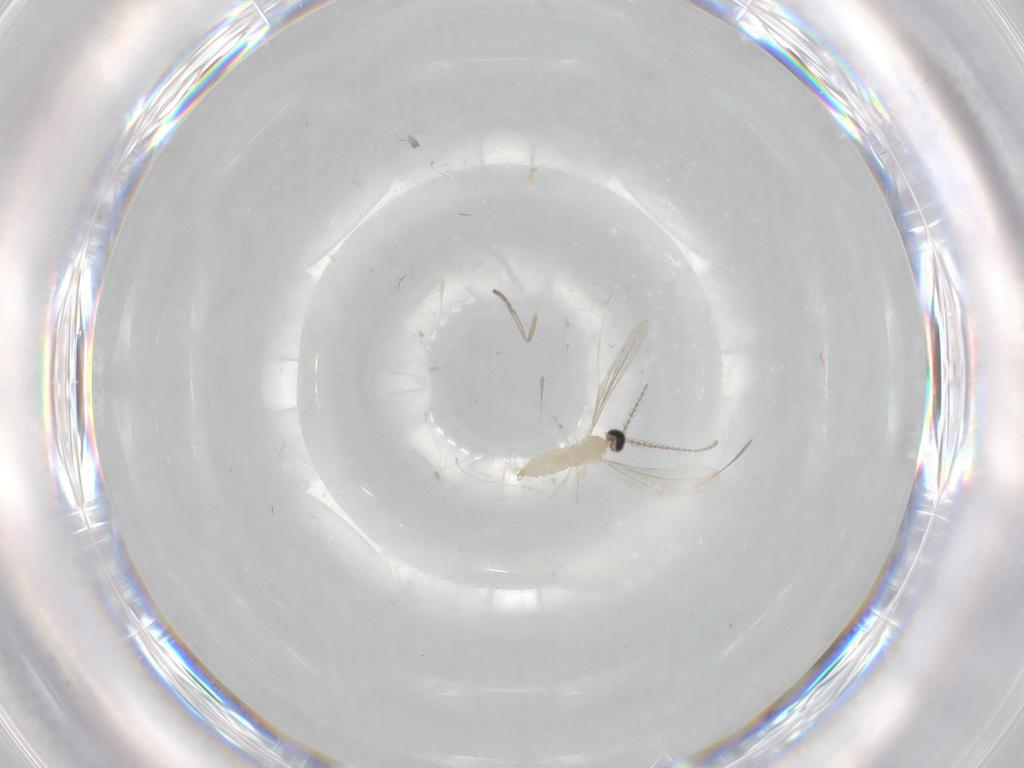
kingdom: Animalia
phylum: Arthropoda
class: Insecta
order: Diptera
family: Cecidomyiidae
